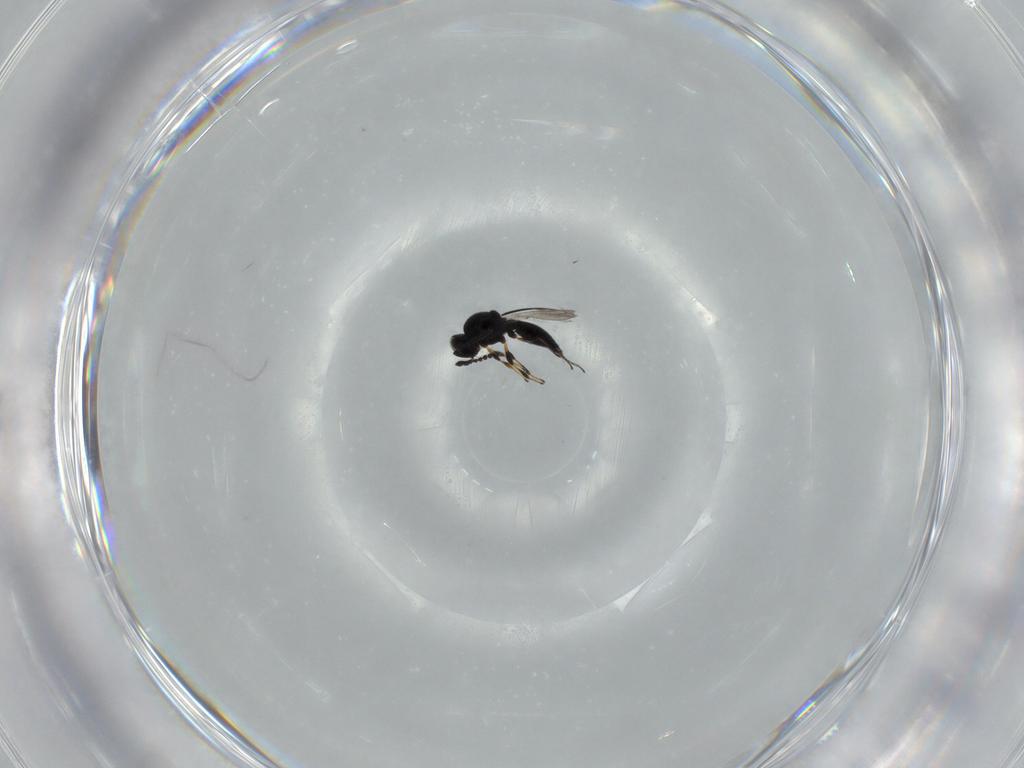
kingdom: Animalia
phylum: Arthropoda
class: Insecta
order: Hymenoptera
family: Platygastridae
